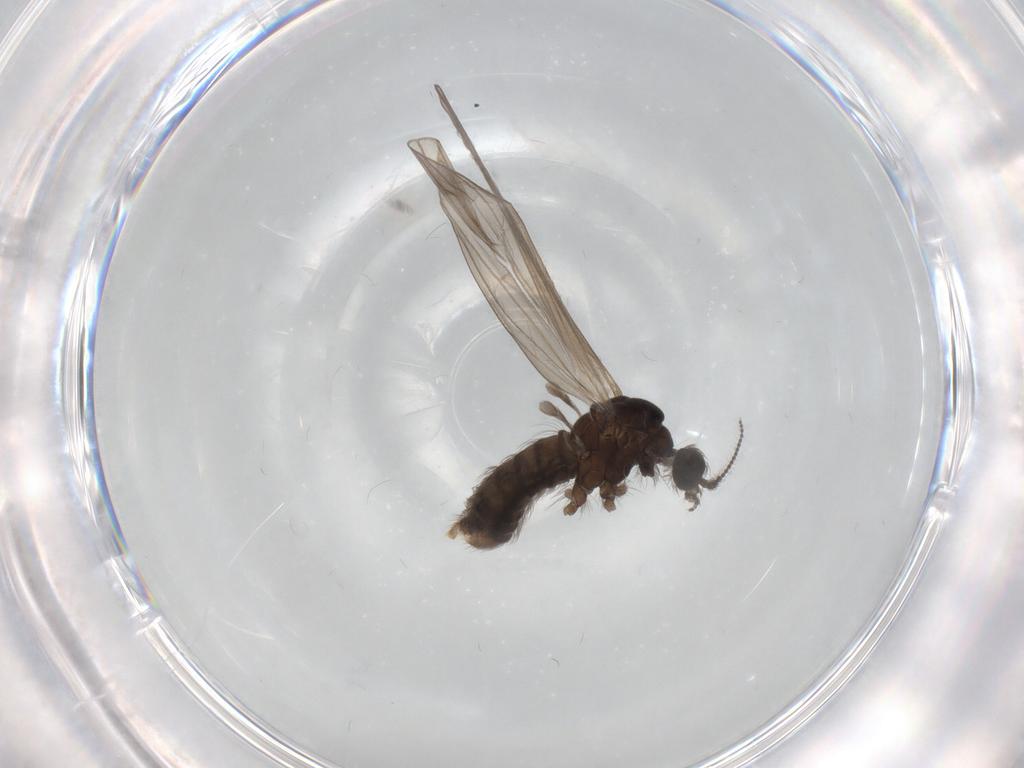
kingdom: Animalia
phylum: Arthropoda
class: Insecta
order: Diptera
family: Limoniidae
